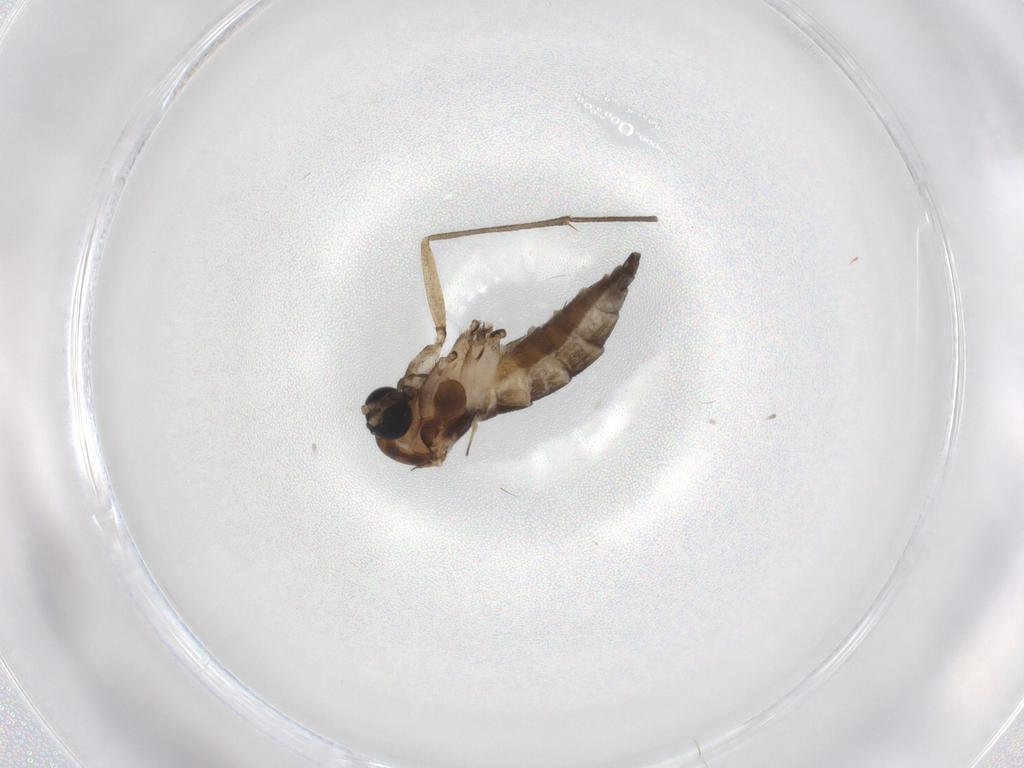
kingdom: Animalia
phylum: Arthropoda
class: Insecta
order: Diptera
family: Sciaridae
